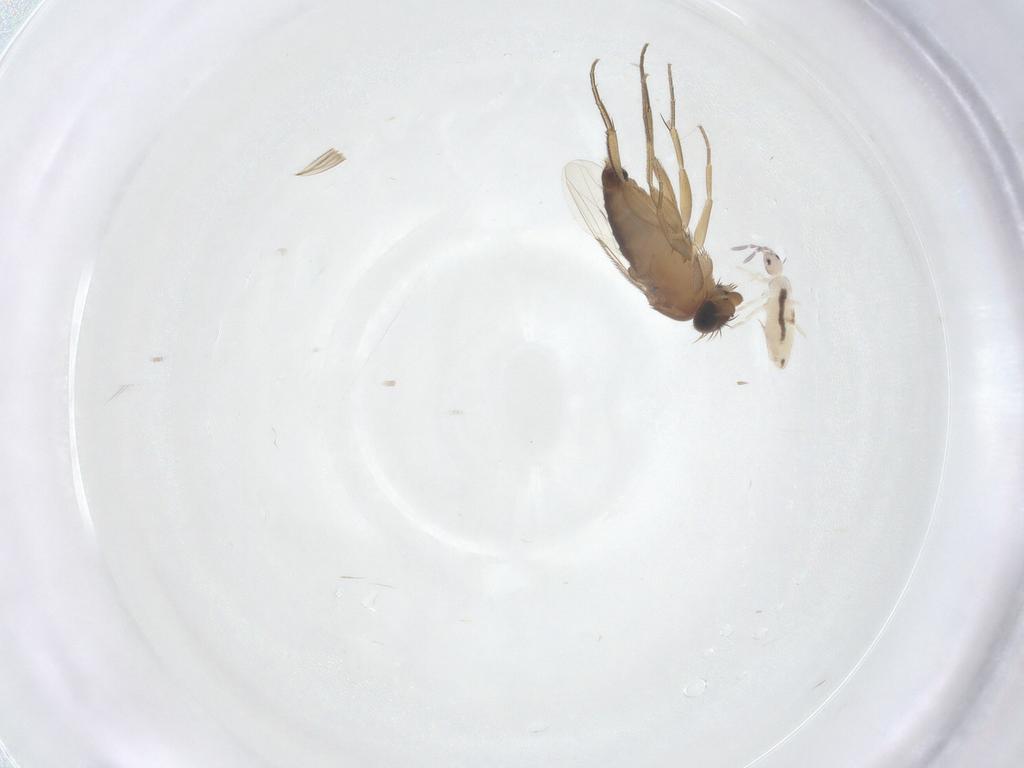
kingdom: Animalia
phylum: Arthropoda
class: Insecta
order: Diptera
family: Phoridae
